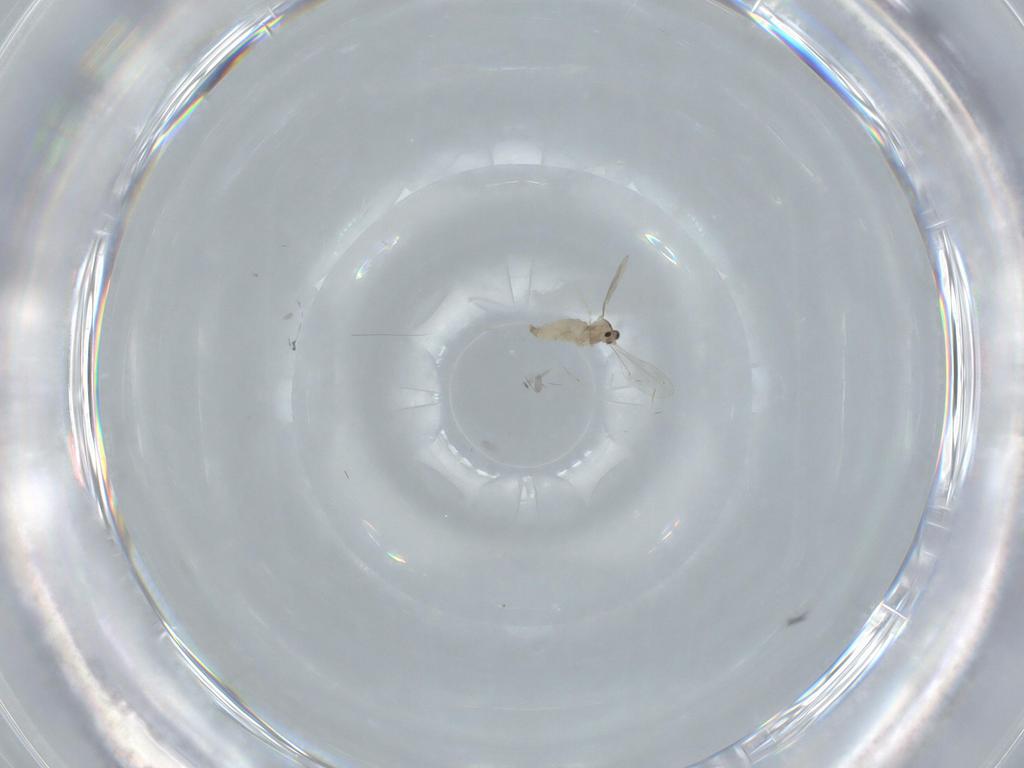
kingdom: Animalia
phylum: Arthropoda
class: Insecta
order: Diptera
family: Cecidomyiidae
